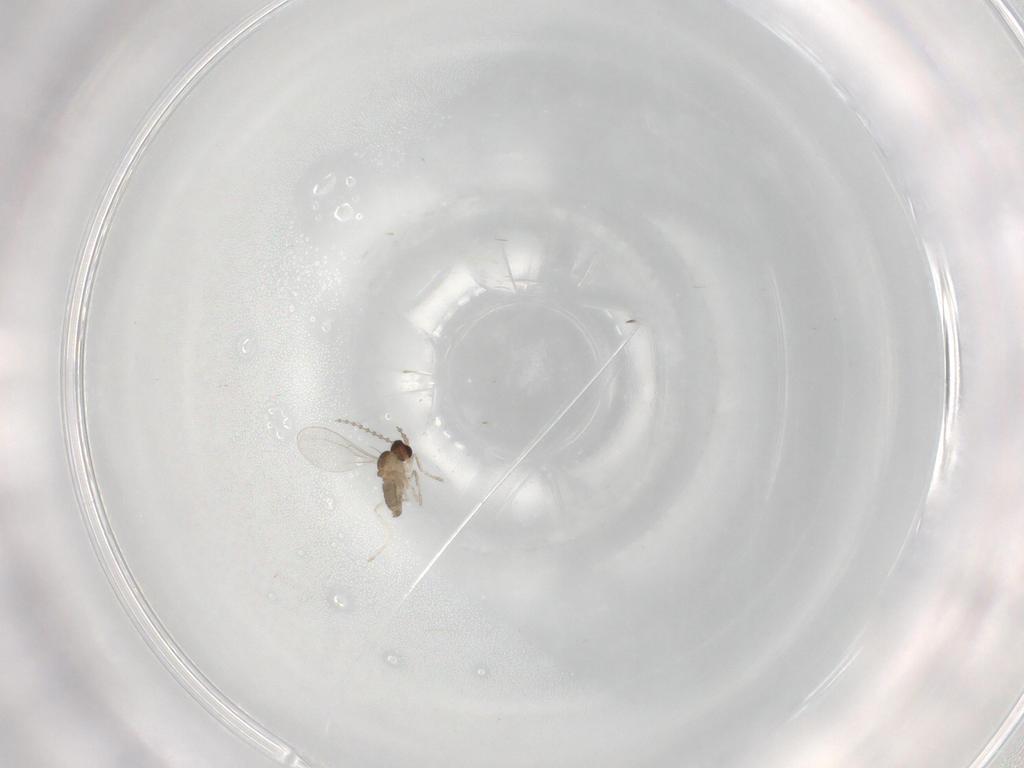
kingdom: Animalia
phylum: Arthropoda
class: Insecta
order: Diptera
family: Cecidomyiidae
